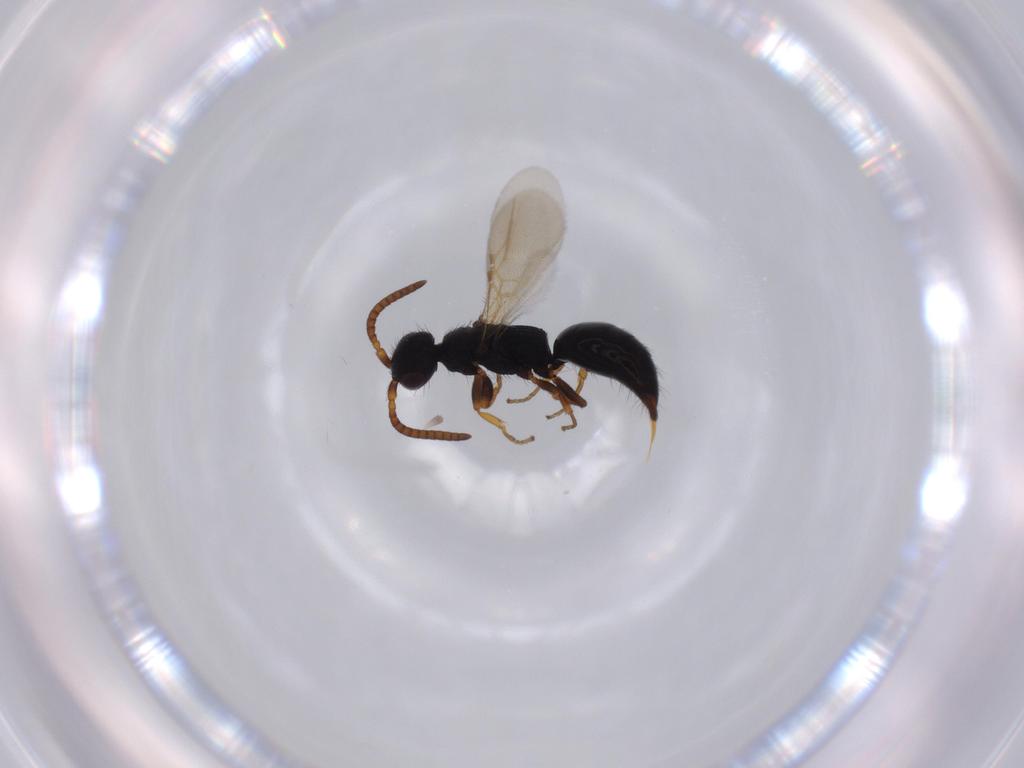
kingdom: Animalia
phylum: Arthropoda
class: Insecta
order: Hymenoptera
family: Bethylidae
